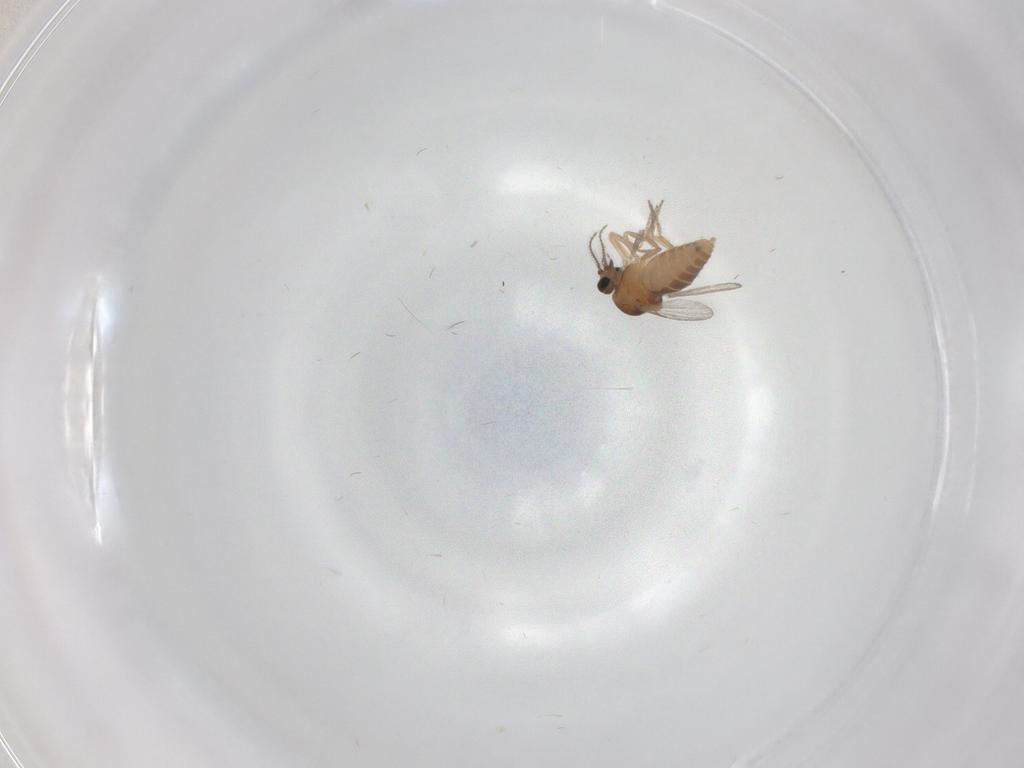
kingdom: Animalia
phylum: Arthropoda
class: Insecta
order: Diptera
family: Ceratopogonidae
